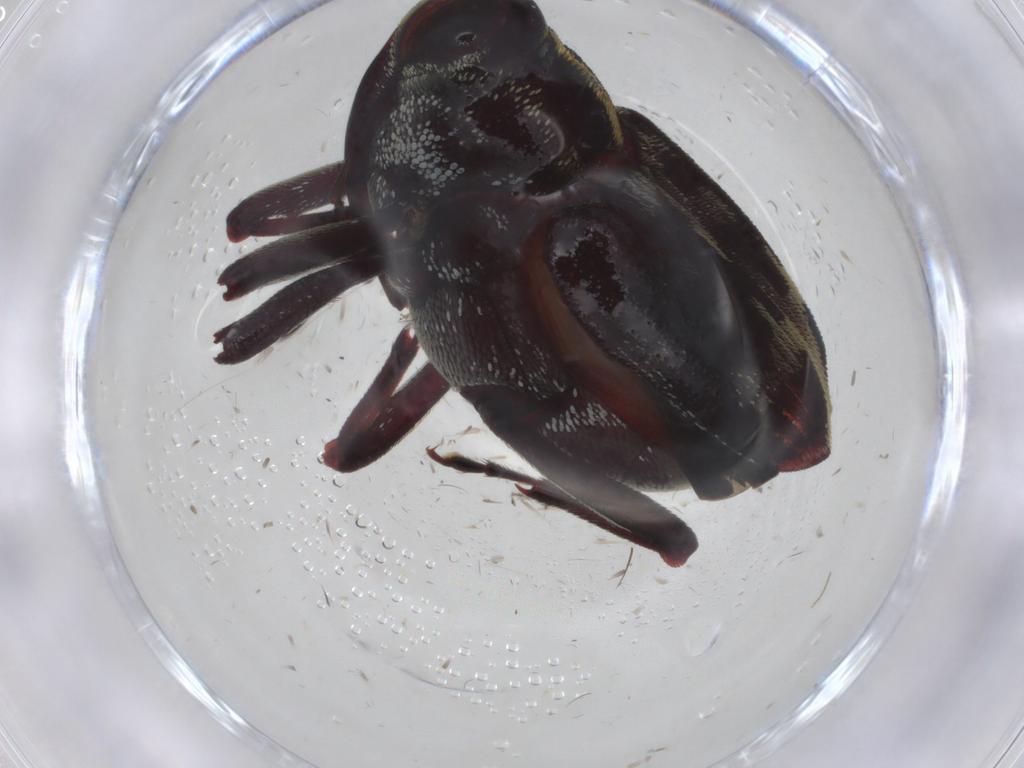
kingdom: Animalia
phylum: Arthropoda
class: Insecta
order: Coleoptera
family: Curculionidae
